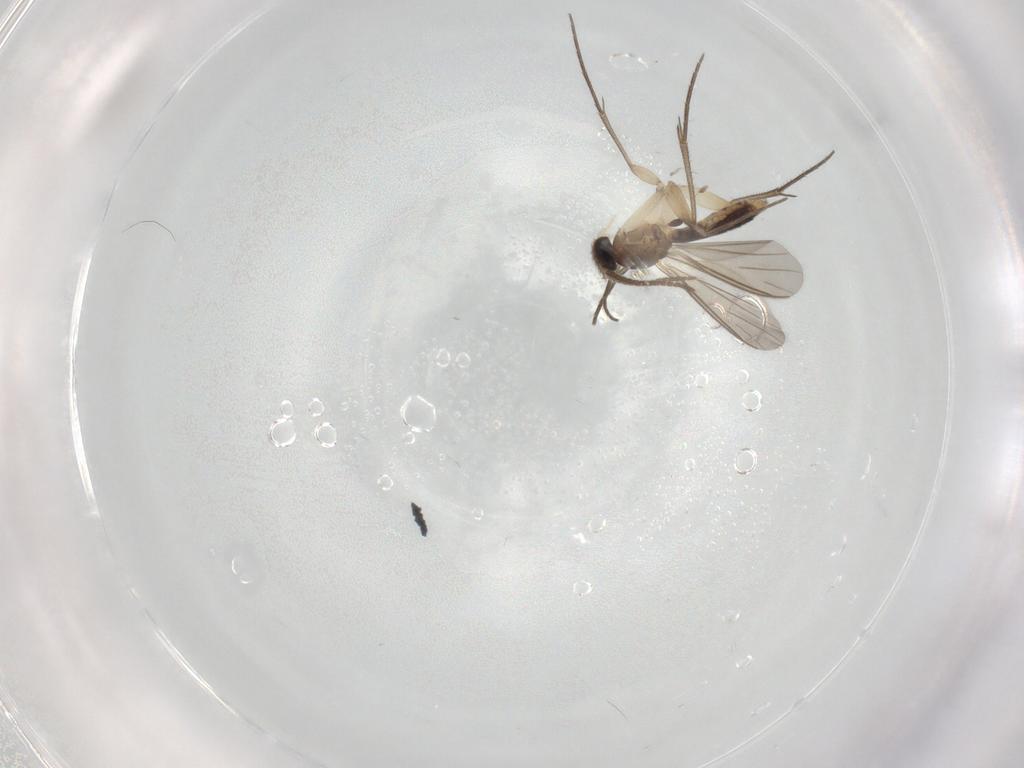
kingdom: Animalia
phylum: Arthropoda
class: Insecta
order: Diptera
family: Mycetophilidae
